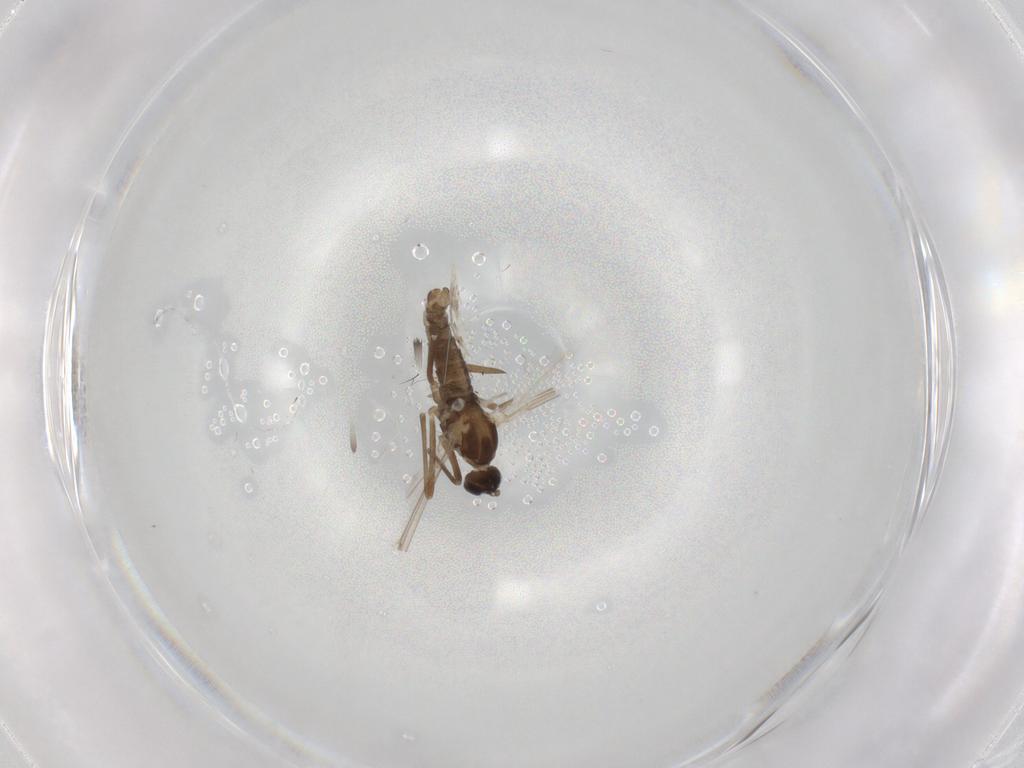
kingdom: Animalia
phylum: Arthropoda
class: Insecta
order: Diptera
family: Cecidomyiidae
